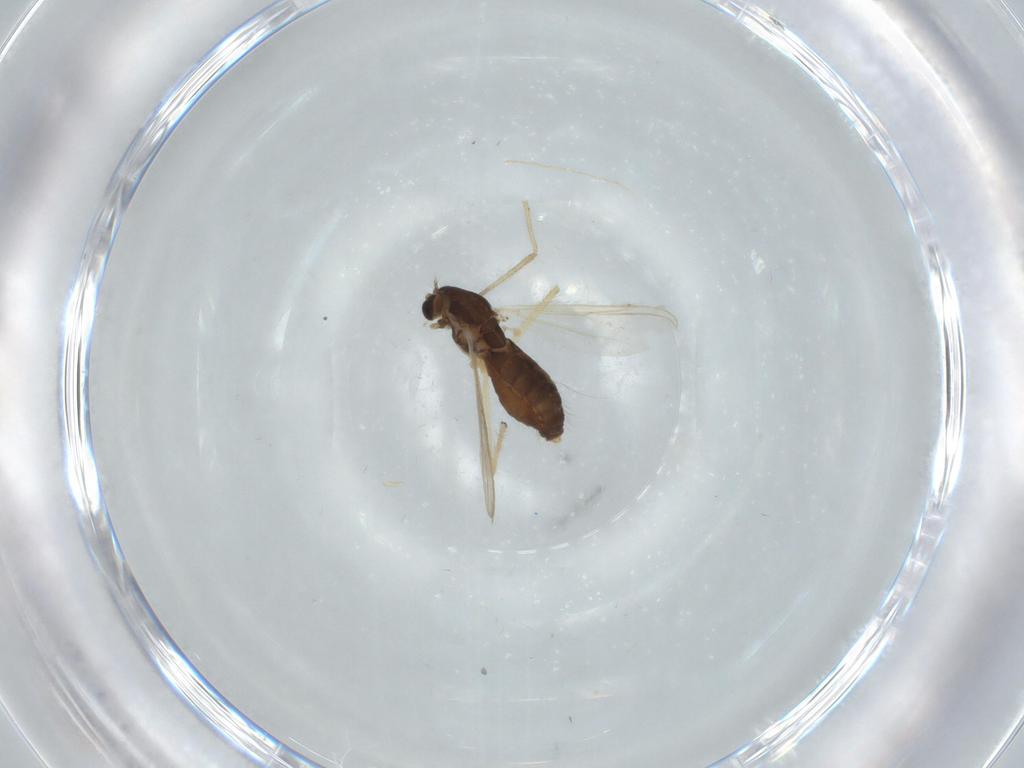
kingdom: Animalia
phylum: Arthropoda
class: Insecta
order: Diptera
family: Chironomidae
